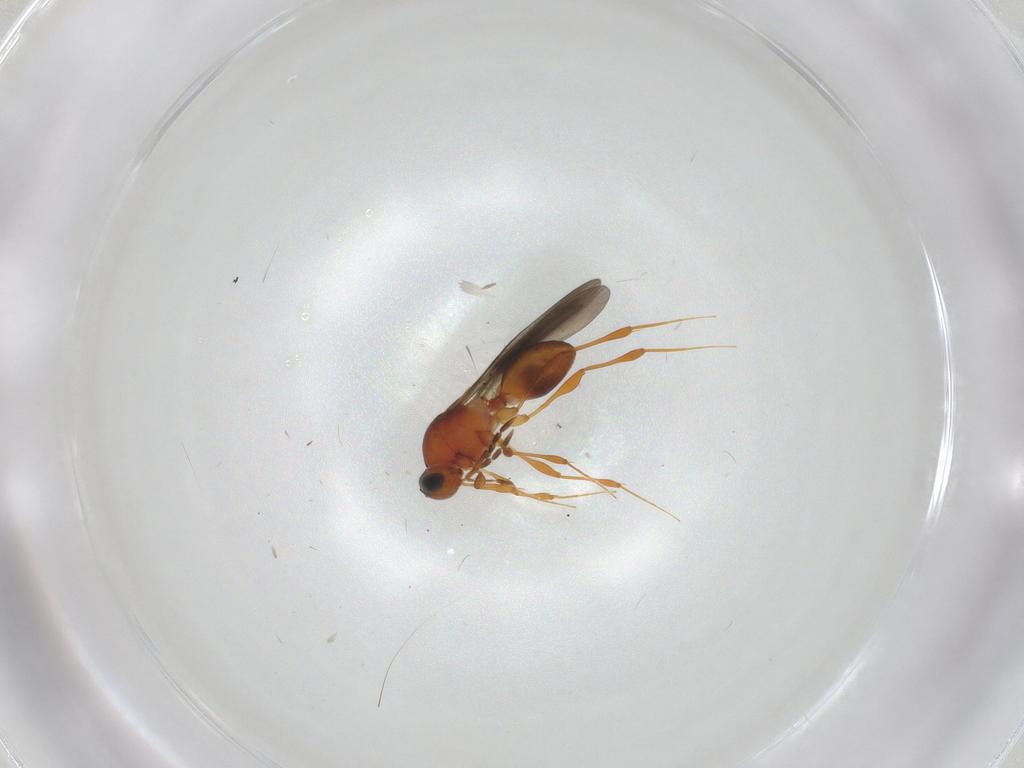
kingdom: Animalia
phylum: Arthropoda
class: Insecta
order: Hymenoptera
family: Platygastridae
